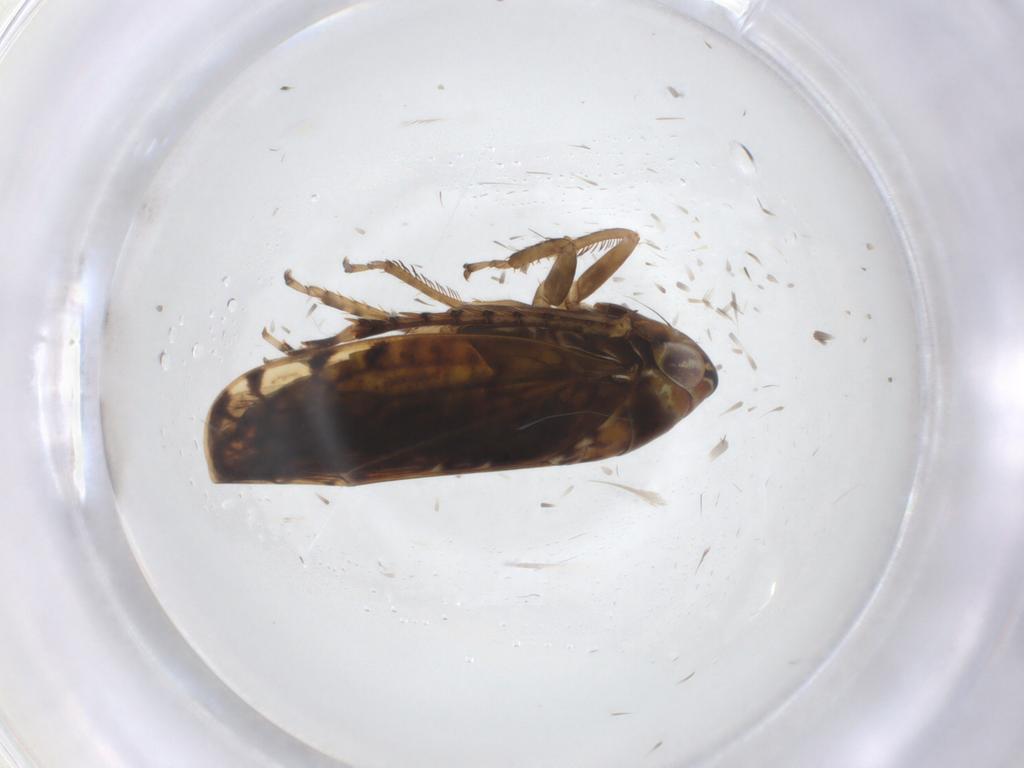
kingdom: Animalia
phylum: Arthropoda
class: Insecta
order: Hemiptera
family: Cicadellidae
